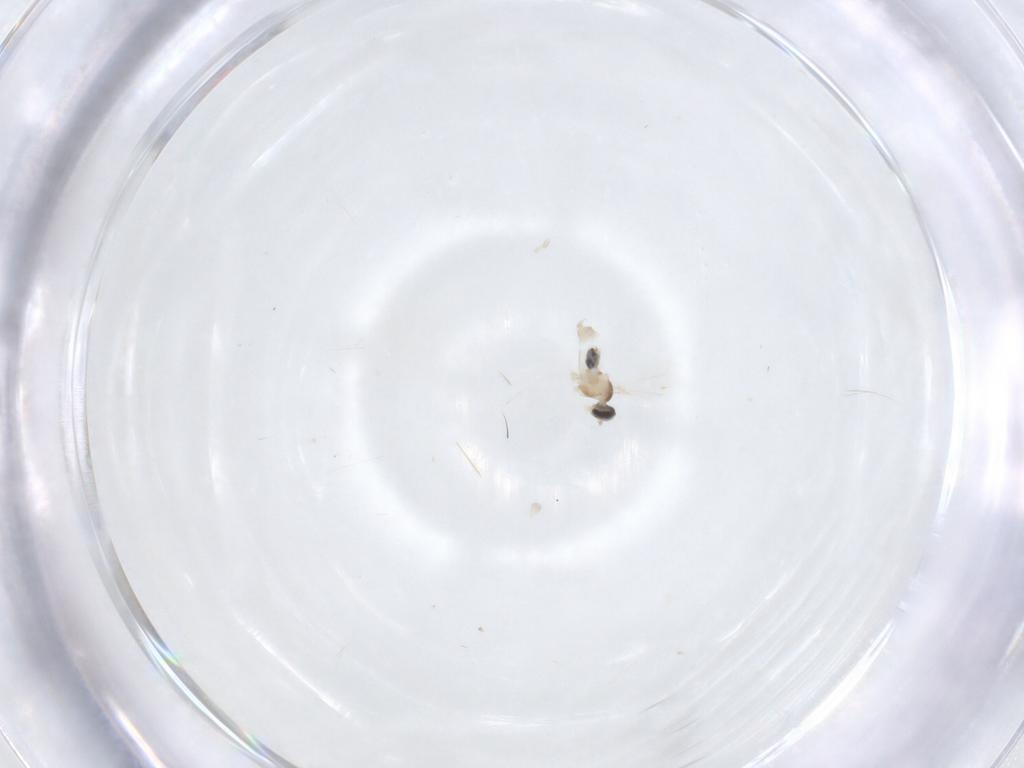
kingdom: Animalia
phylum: Arthropoda
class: Insecta
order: Diptera
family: Cecidomyiidae
